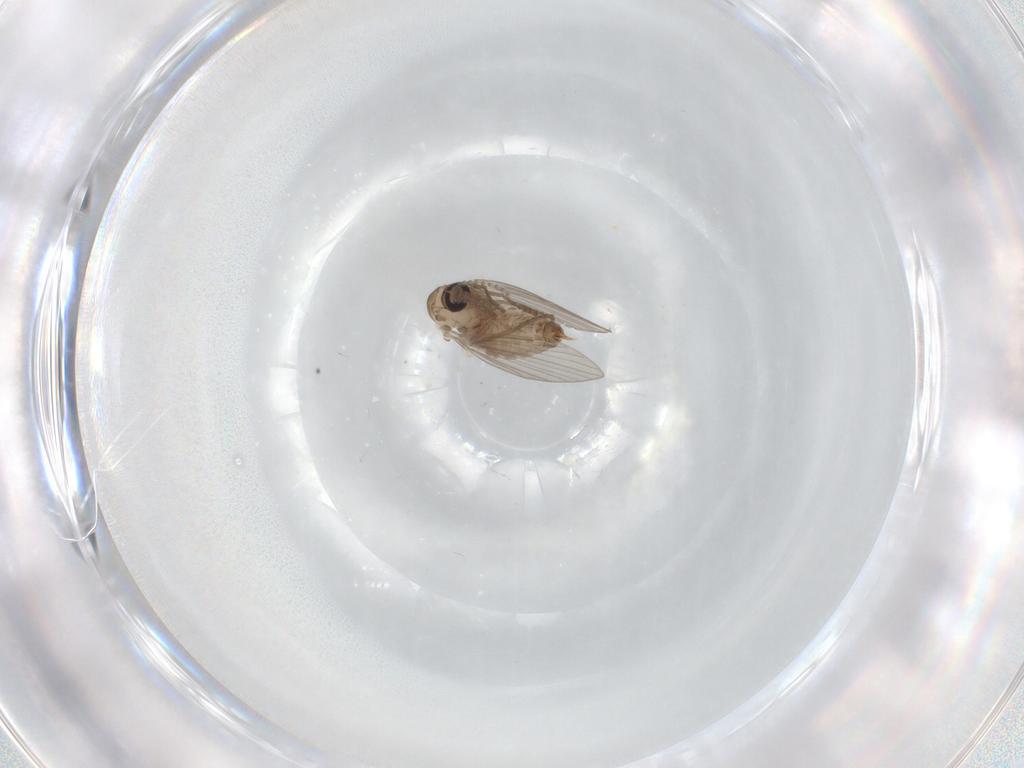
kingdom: Animalia
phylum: Arthropoda
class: Insecta
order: Diptera
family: Psychodidae
